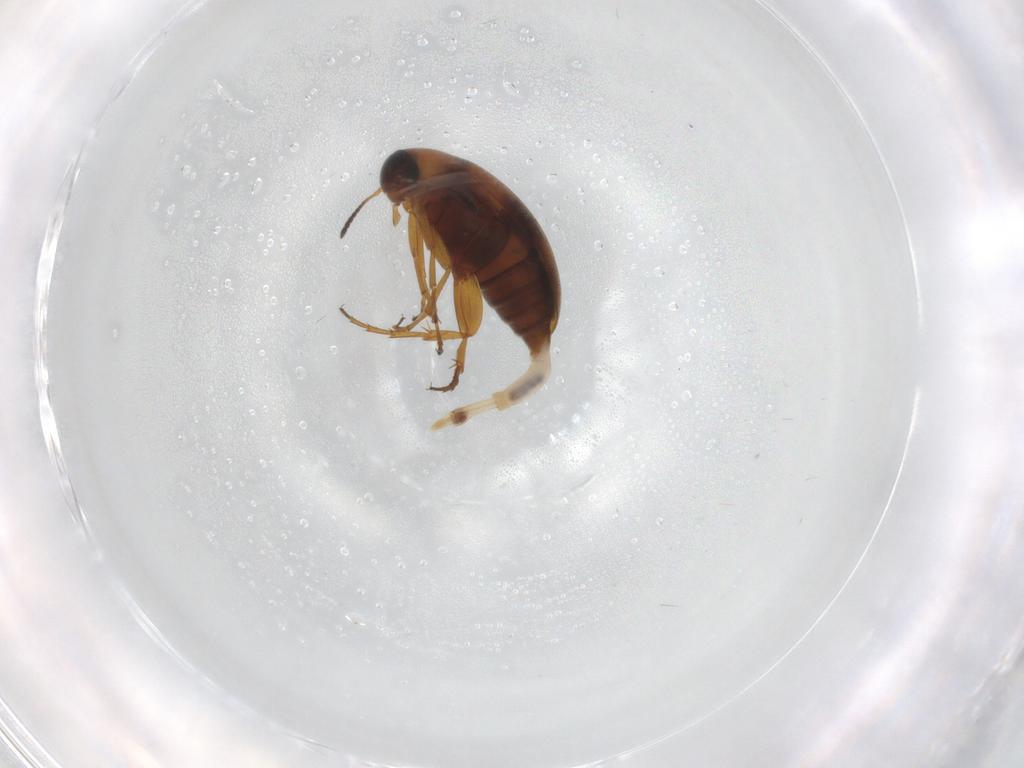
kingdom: Animalia
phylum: Arthropoda
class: Insecta
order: Coleoptera
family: Scraptiidae
